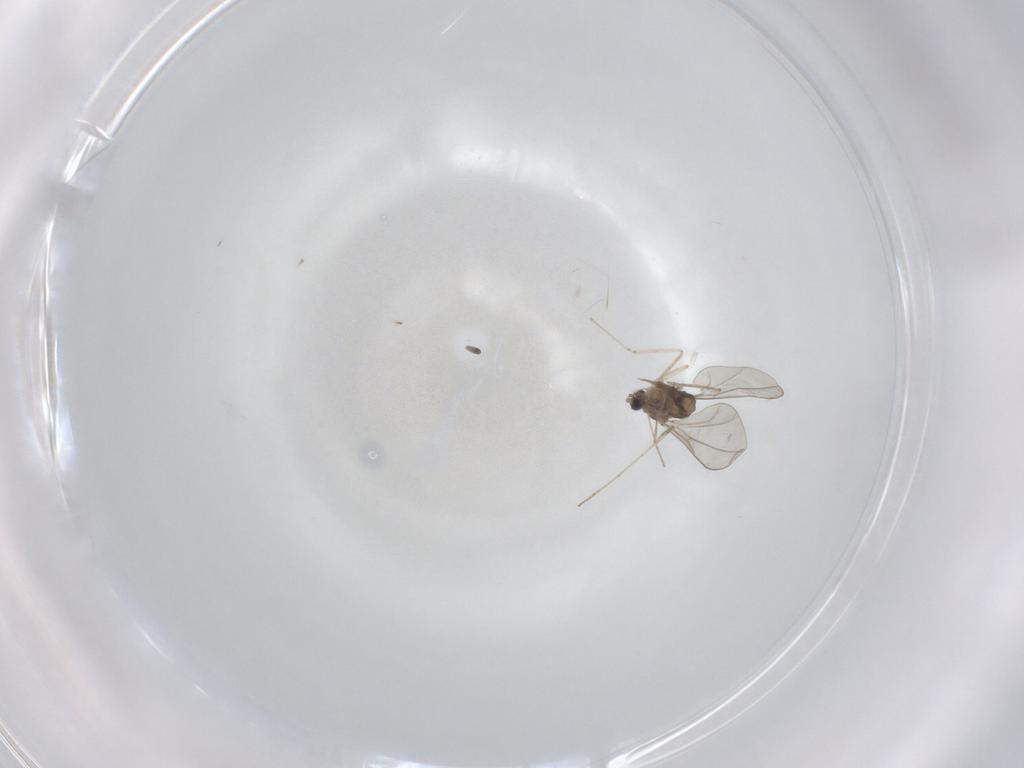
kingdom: Animalia
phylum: Arthropoda
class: Insecta
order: Diptera
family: Cecidomyiidae
